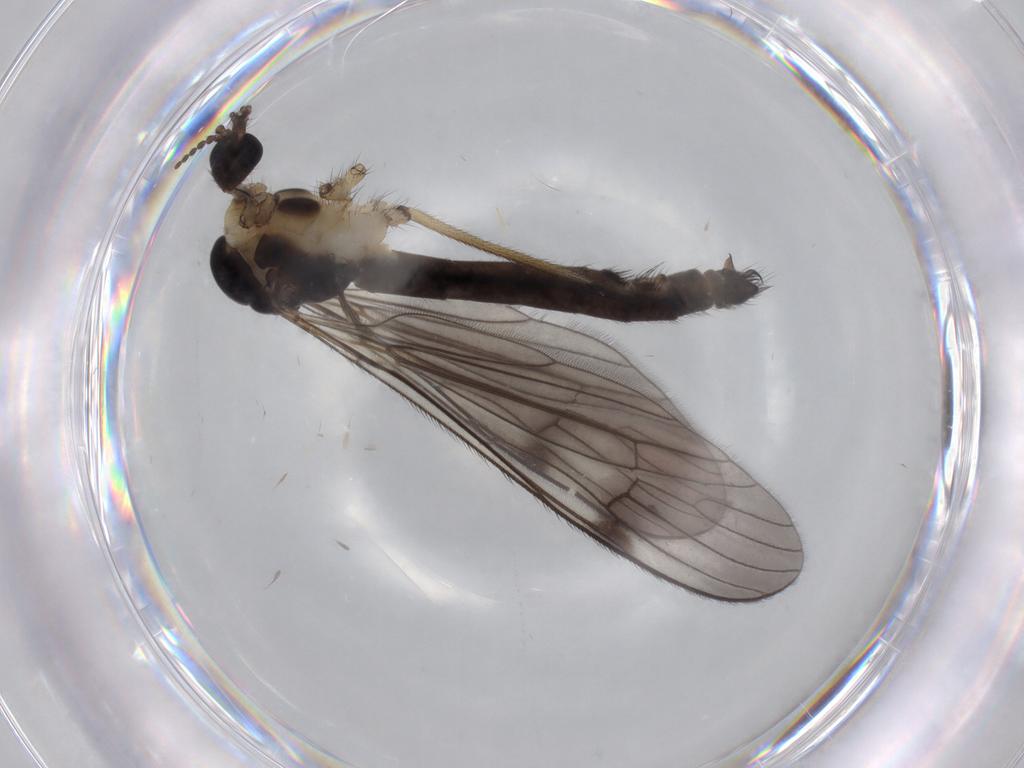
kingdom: Animalia
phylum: Arthropoda
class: Insecta
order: Diptera
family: Limoniidae
